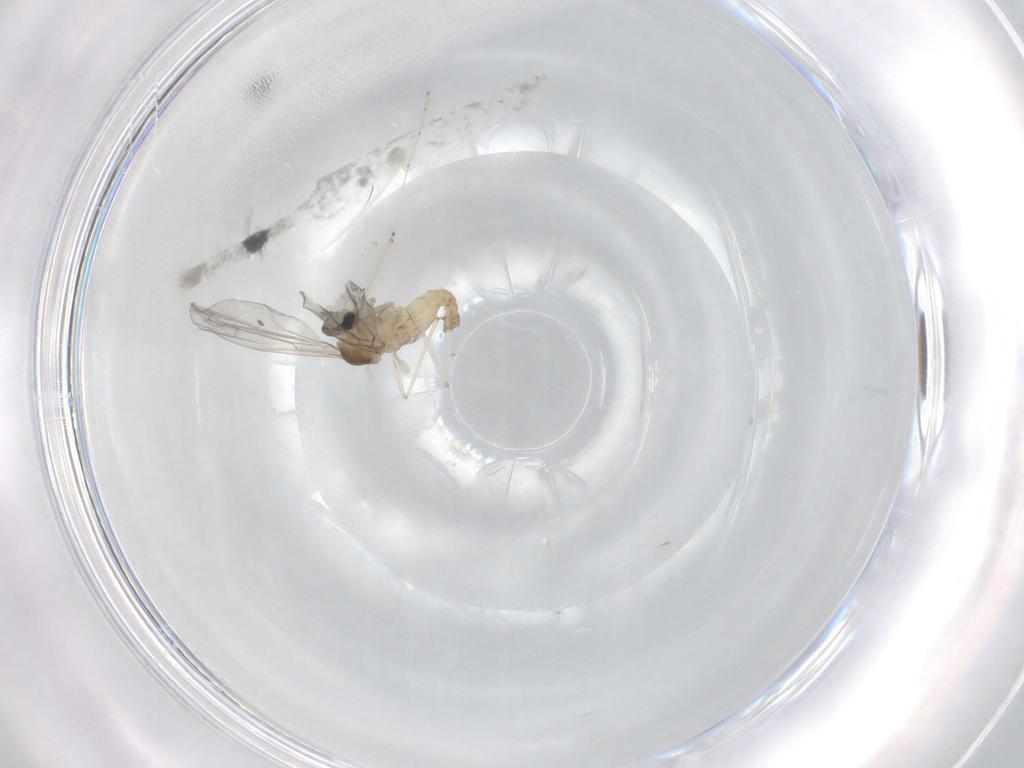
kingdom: Animalia
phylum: Arthropoda
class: Insecta
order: Diptera
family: Cecidomyiidae
